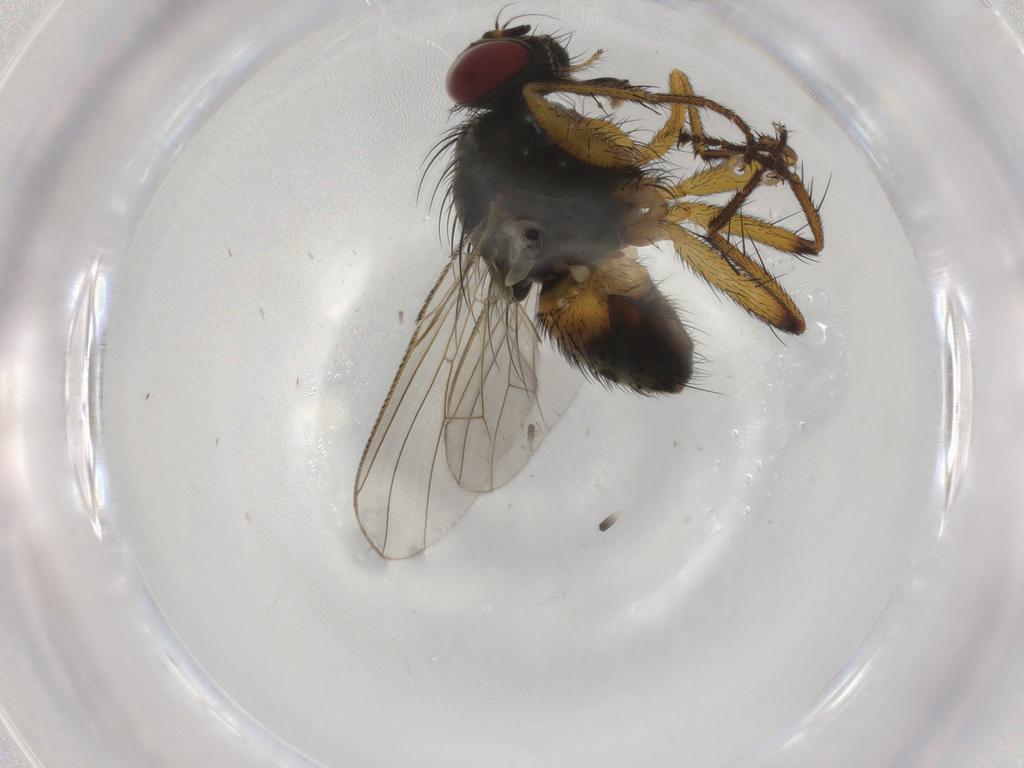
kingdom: Animalia
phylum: Arthropoda
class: Insecta
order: Diptera
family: Muscidae
